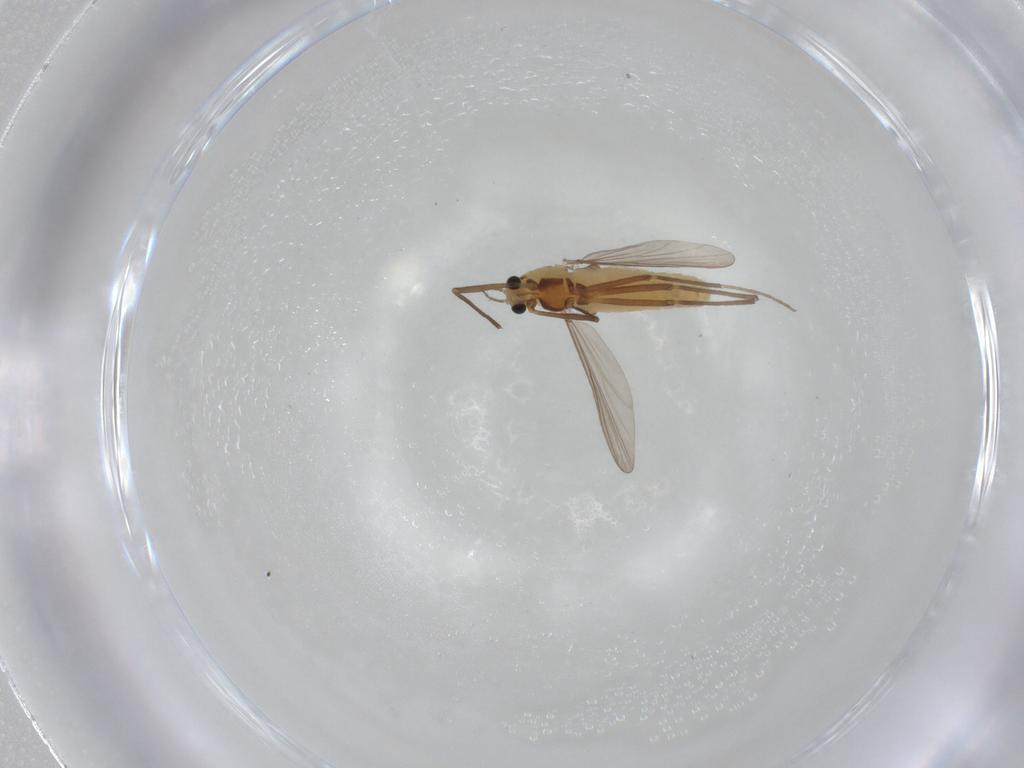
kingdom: Animalia
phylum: Arthropoda
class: Insecta
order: Diptera
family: Chironomidae
